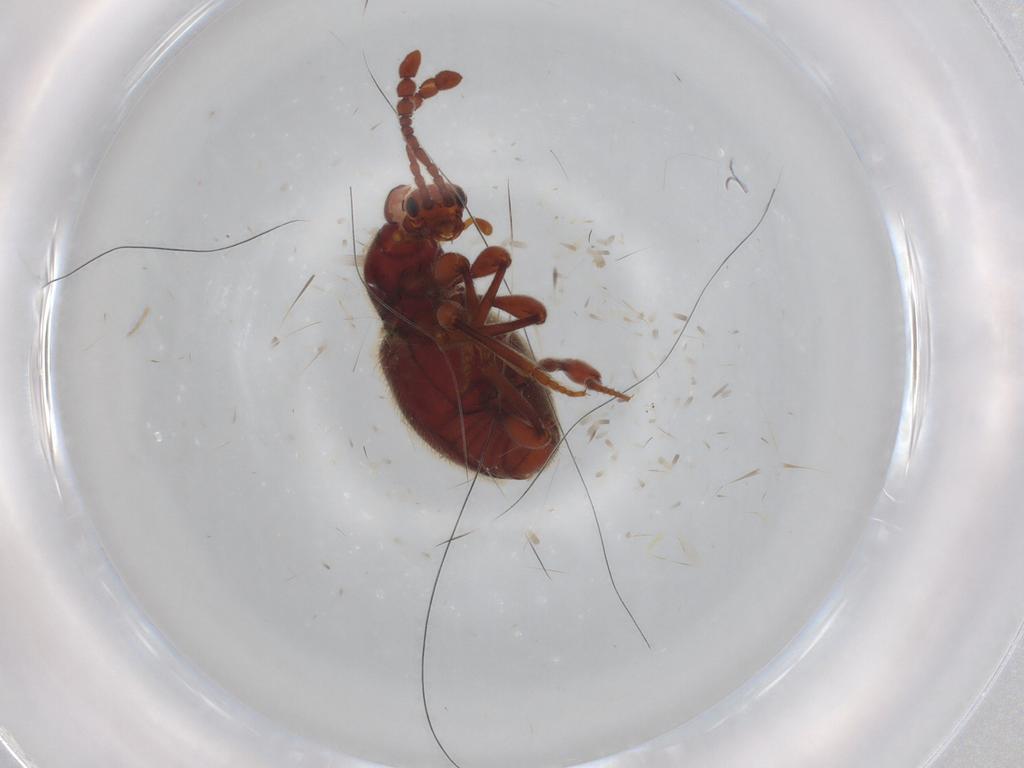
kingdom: Animalia
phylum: Arthropoda
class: Insecta
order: Coleoptera
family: Staphylinidae
